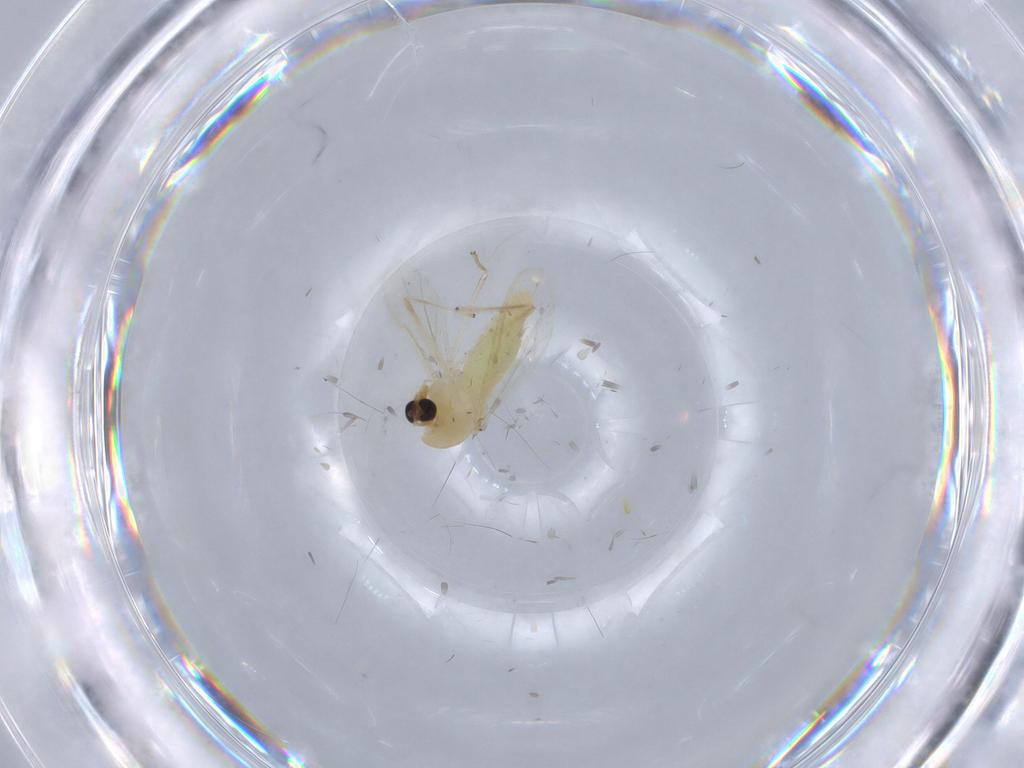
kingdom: Animalia
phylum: Arthropoda
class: Insecta
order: Diptera
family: Chironomidae
